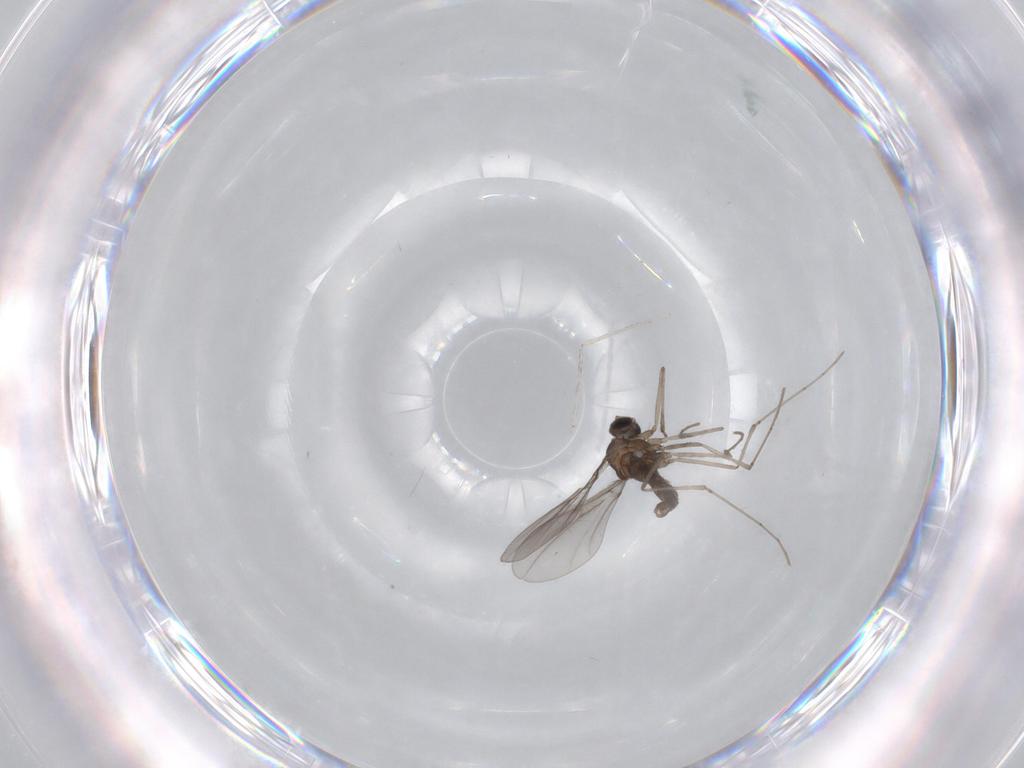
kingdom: Animalia
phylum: Arthropoda
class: Insecta
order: Diptera
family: Cecidomyiidae
